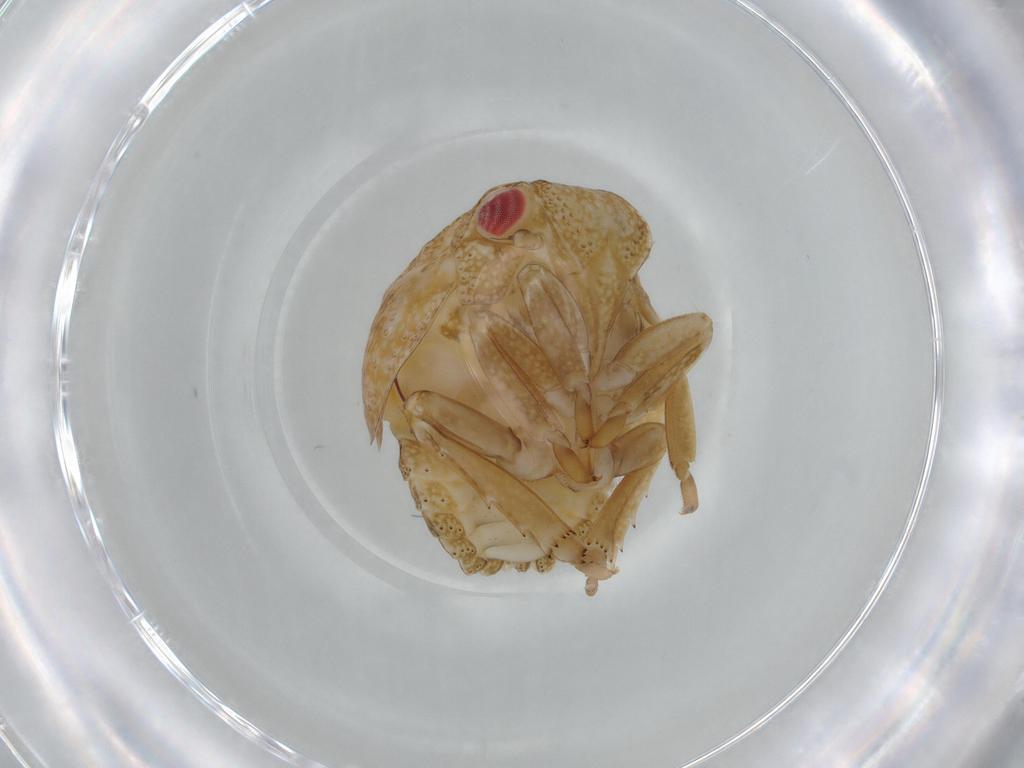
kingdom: Animalia
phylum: Arthropoda
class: Insecta
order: Hemiptera
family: Acanaloniidae
